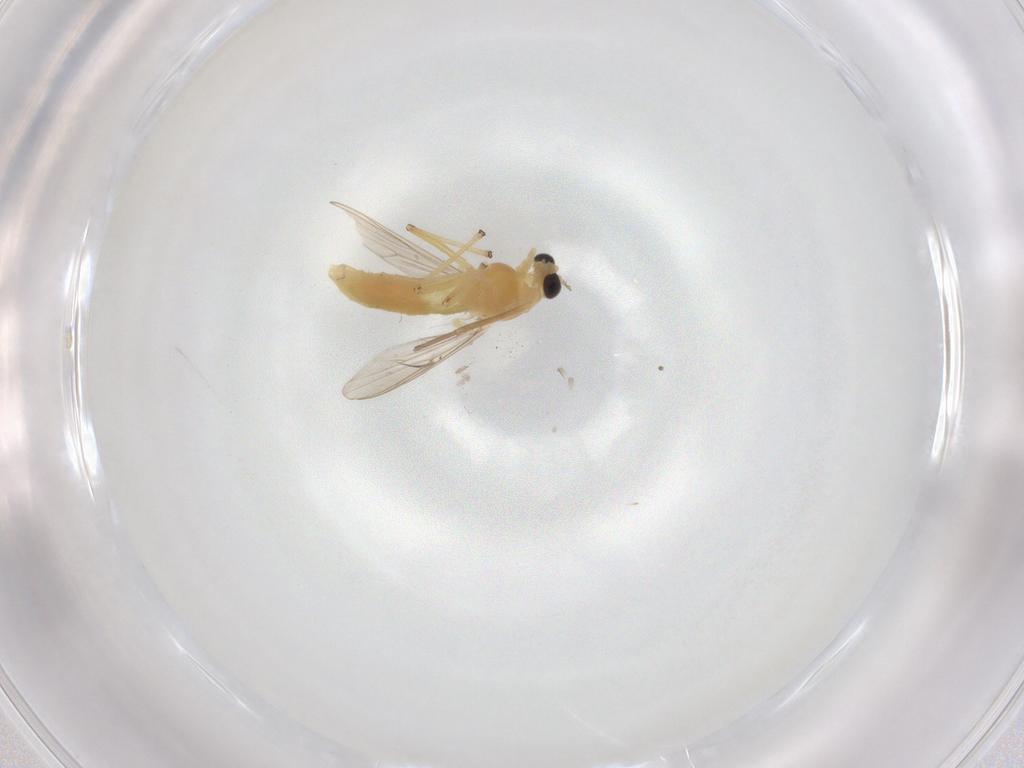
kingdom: Animalia
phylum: Arthropoda
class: Insecta
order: Diptera
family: Chironomidae
